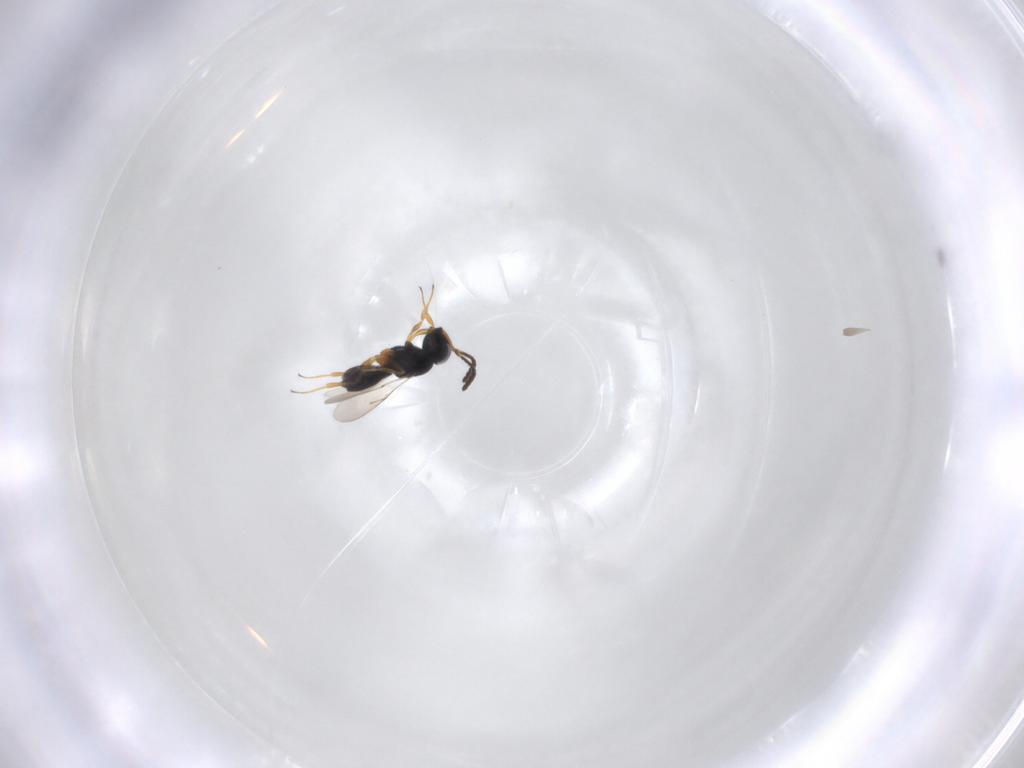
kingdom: Animalia
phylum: Arthropoda
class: Insecta
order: Hymenoptera
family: Scelionidae
